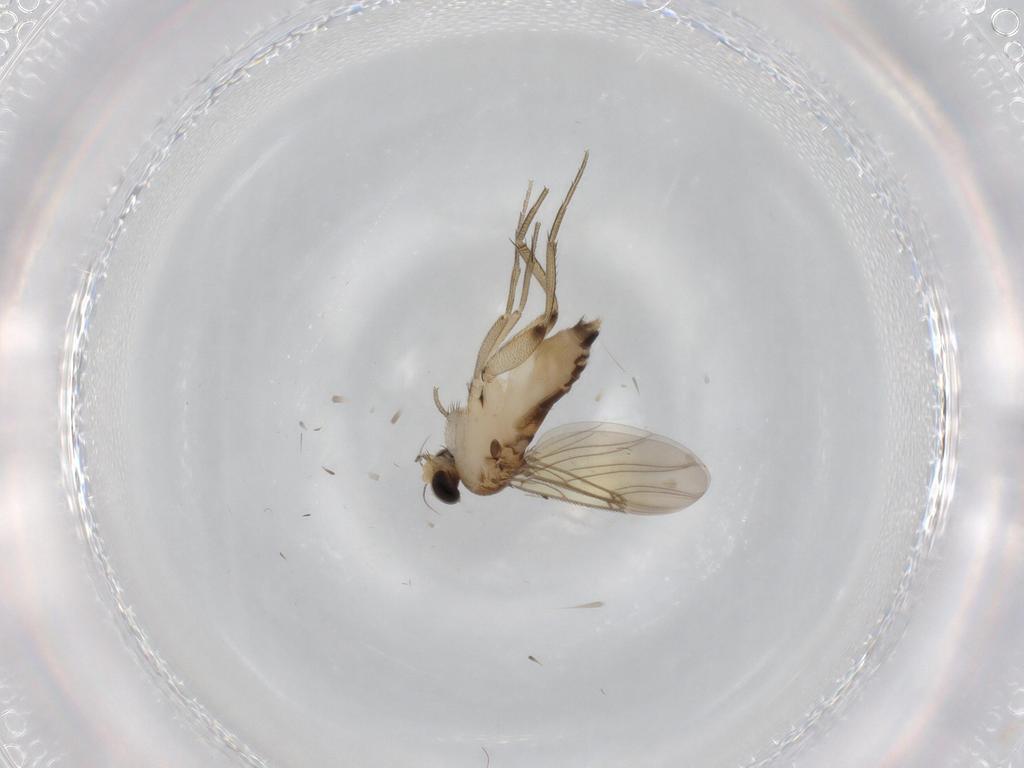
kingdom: Animalia
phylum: Arthropoda
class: Insecta
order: Diptera
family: Phoridae
